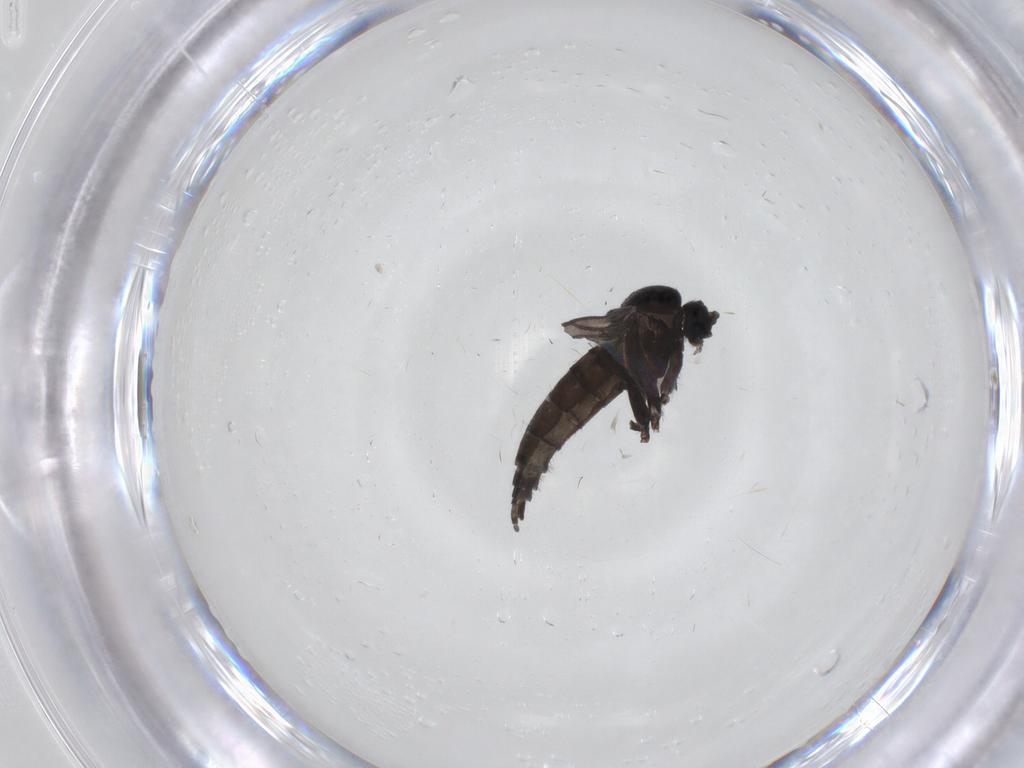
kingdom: Animalia
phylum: Arthropoda
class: Insecta
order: Diptera
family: Sciaridae
